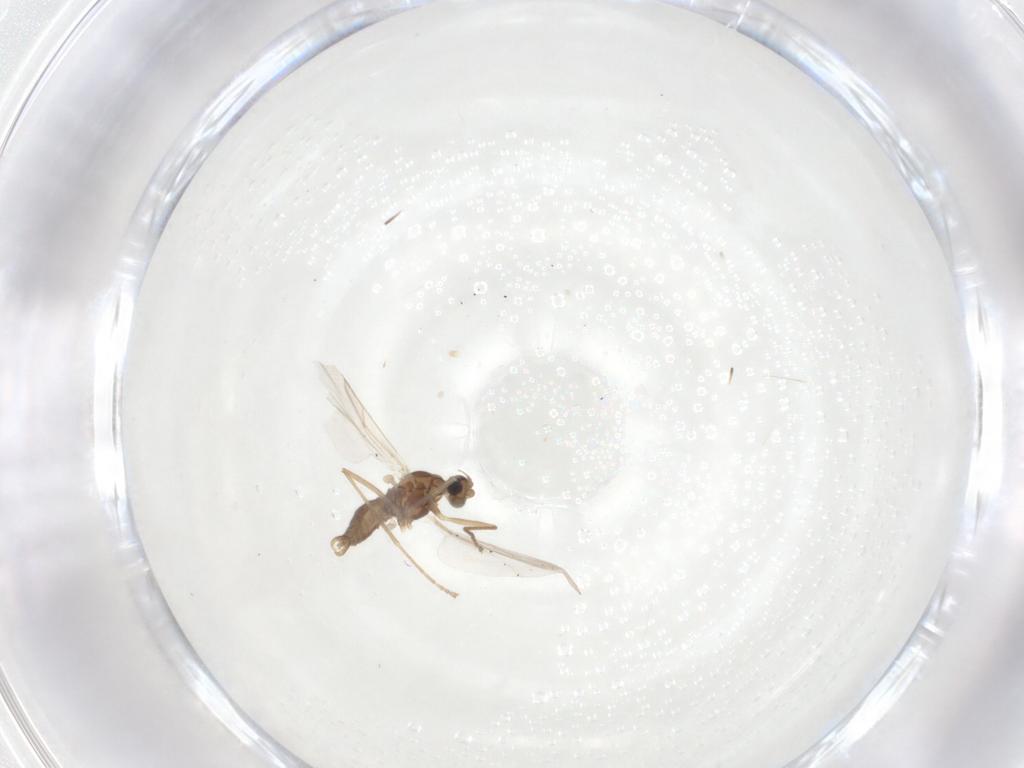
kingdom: Animalia
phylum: Arthropoda
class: Insecta
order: Diptera
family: Cecidomyiidae
